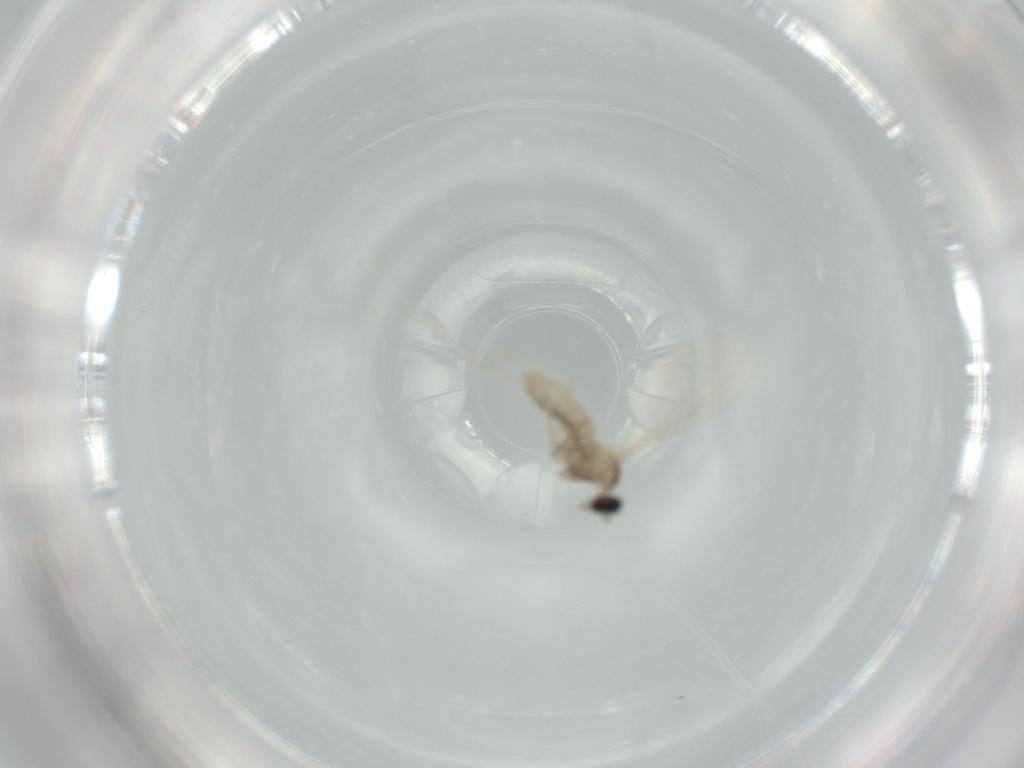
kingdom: Animalia
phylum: Arthropoda
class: Insecta
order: Diptera
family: Cecidomyiidae
